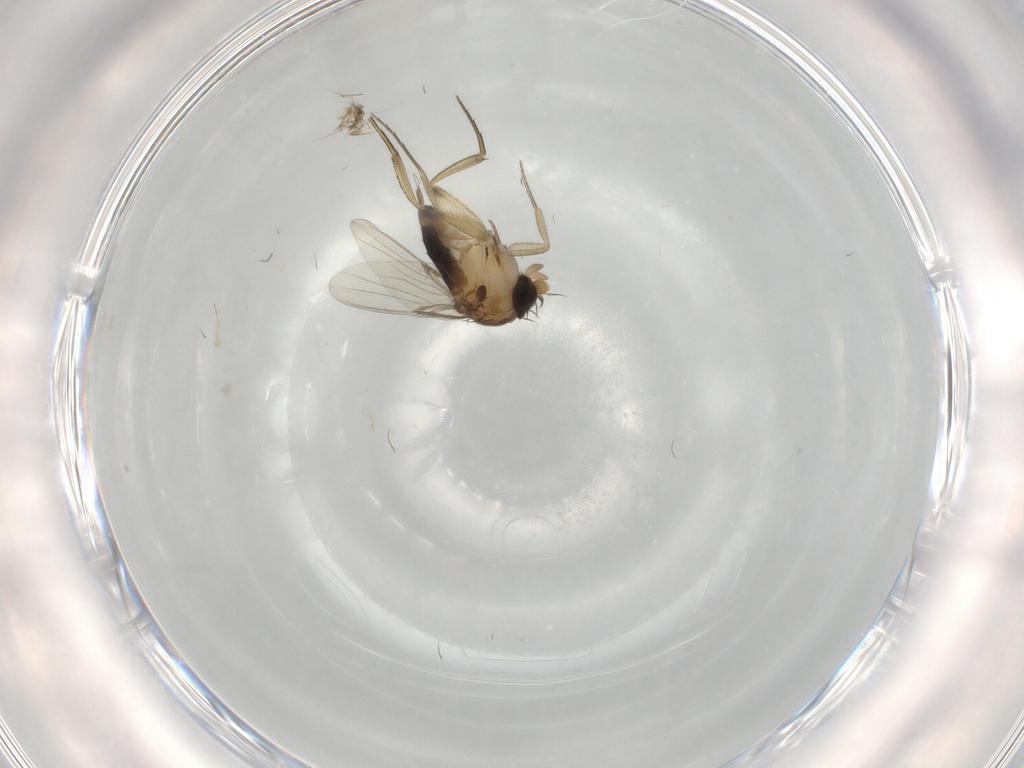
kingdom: Animalia
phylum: Arthropoda
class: Insecta
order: Diptera
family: Phoridae
